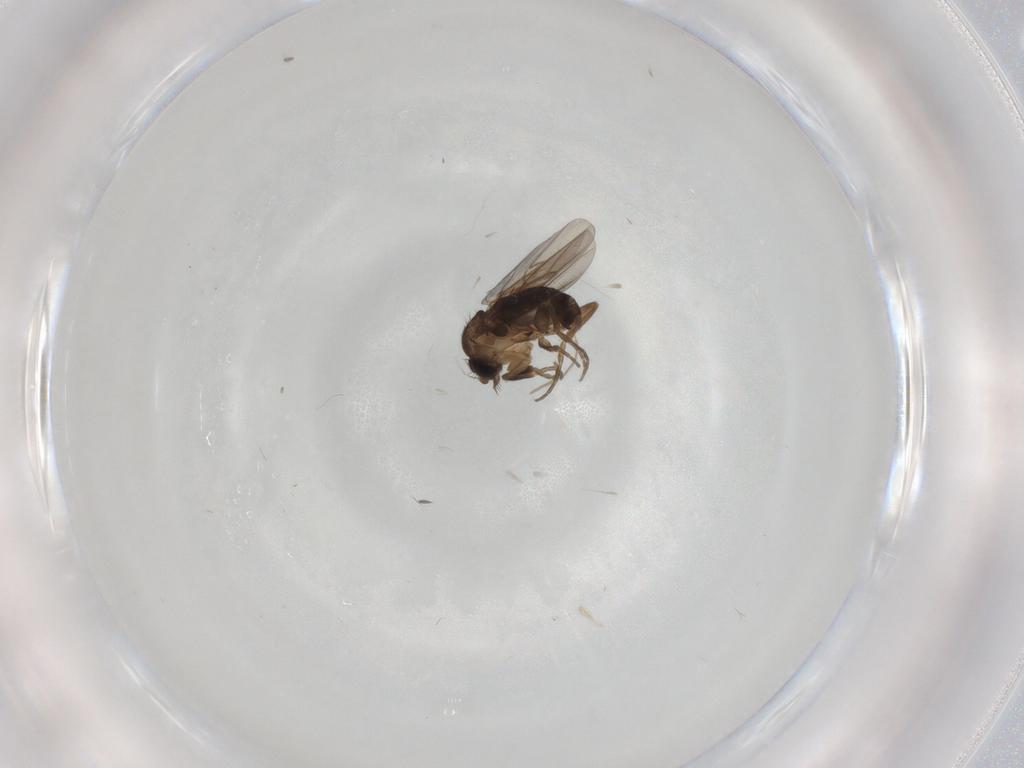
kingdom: Animalia
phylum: Arthropoda
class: Insecta
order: Diptera
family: Phoridae
